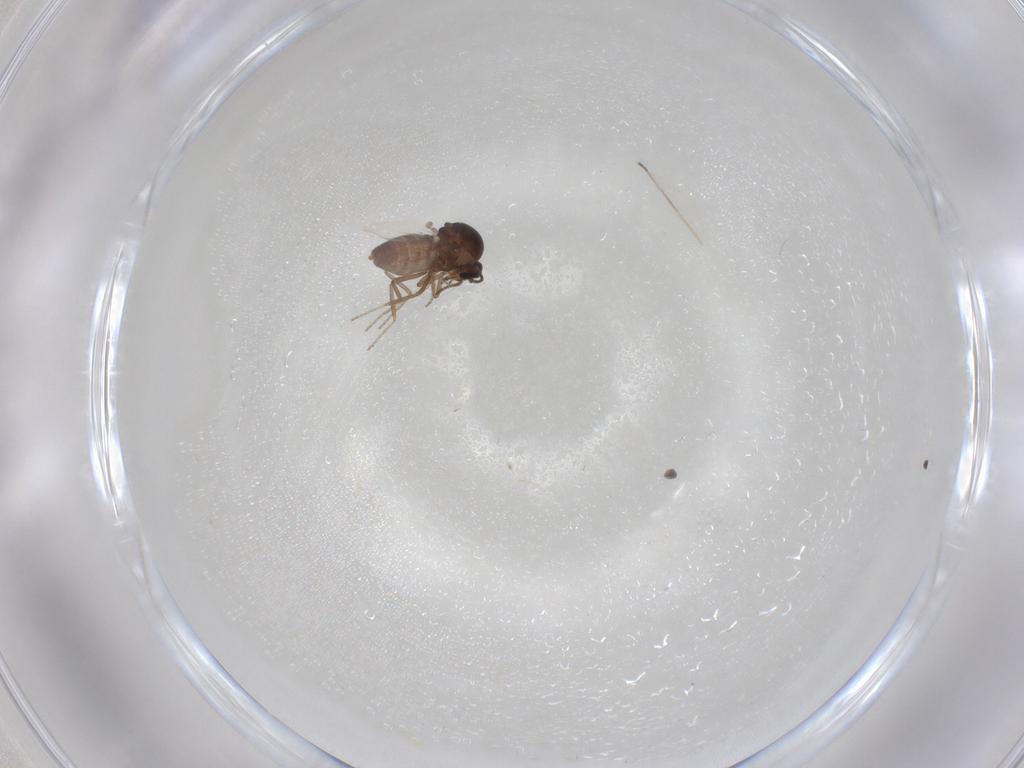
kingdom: Animalia
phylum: Arthropoda
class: Insecta
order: Diptera
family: Ceratopogonidae
